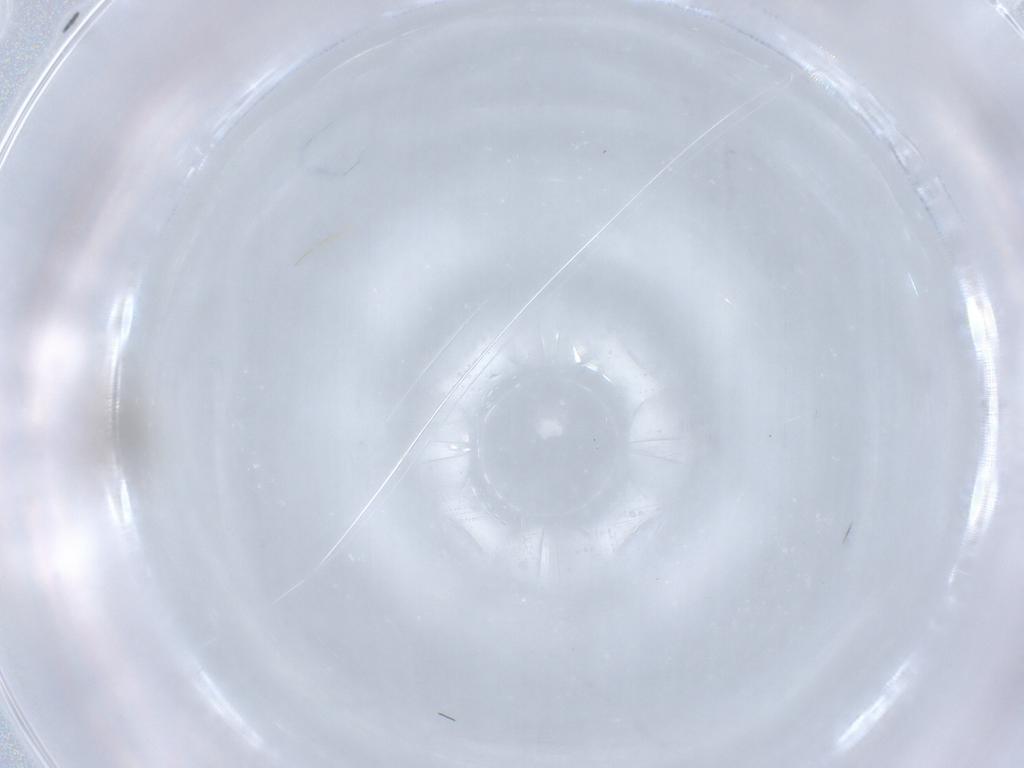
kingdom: Animalia
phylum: Arthropoda
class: Insecta
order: Diptera
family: Cecidomyiidae
